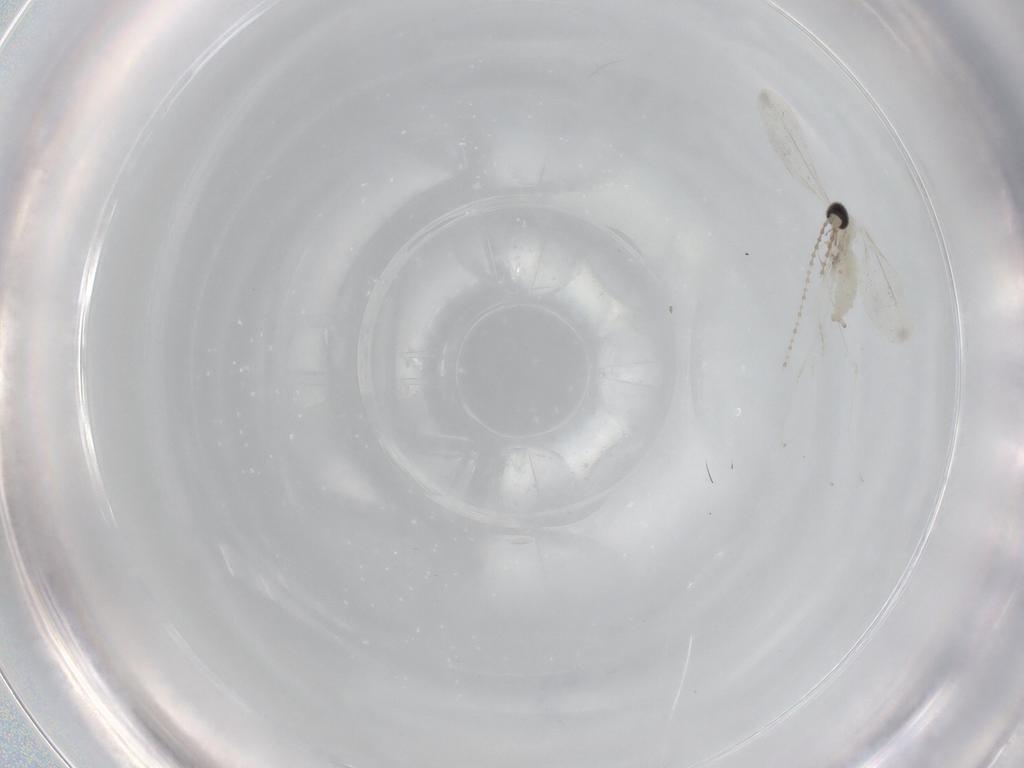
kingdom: Animalia
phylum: Arthropoda
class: Insecta
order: Diptera
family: Cecidomyiidae
